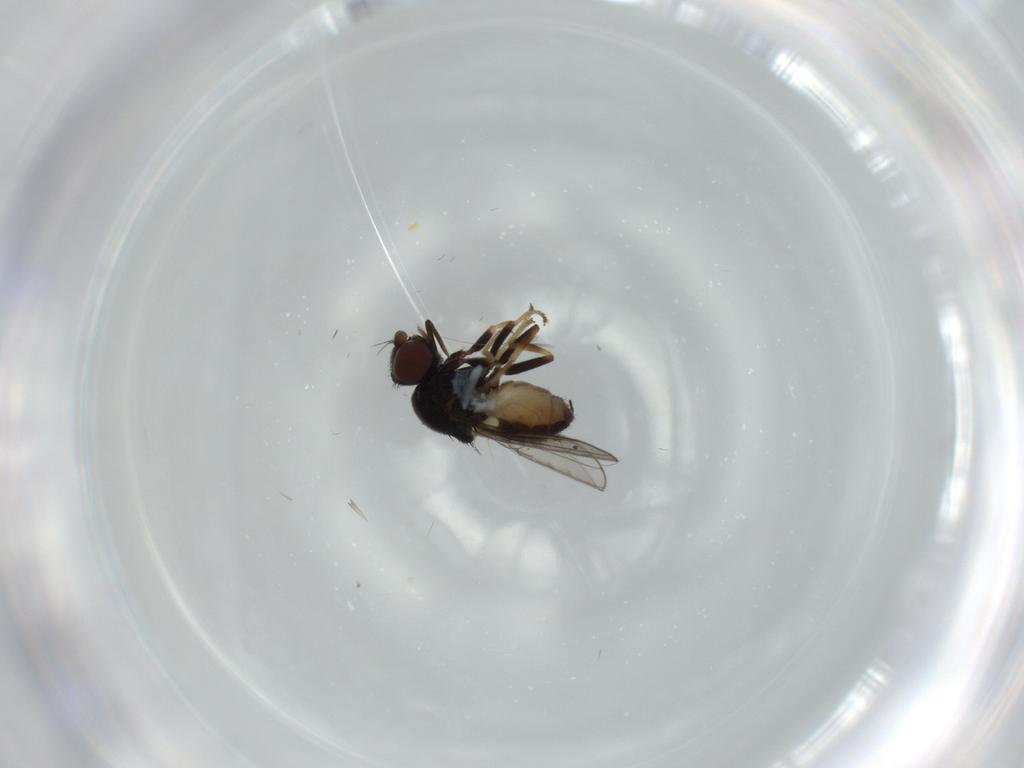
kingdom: Animalia
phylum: Arthropoda
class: Insecta
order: Diptera
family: Chloropidae
